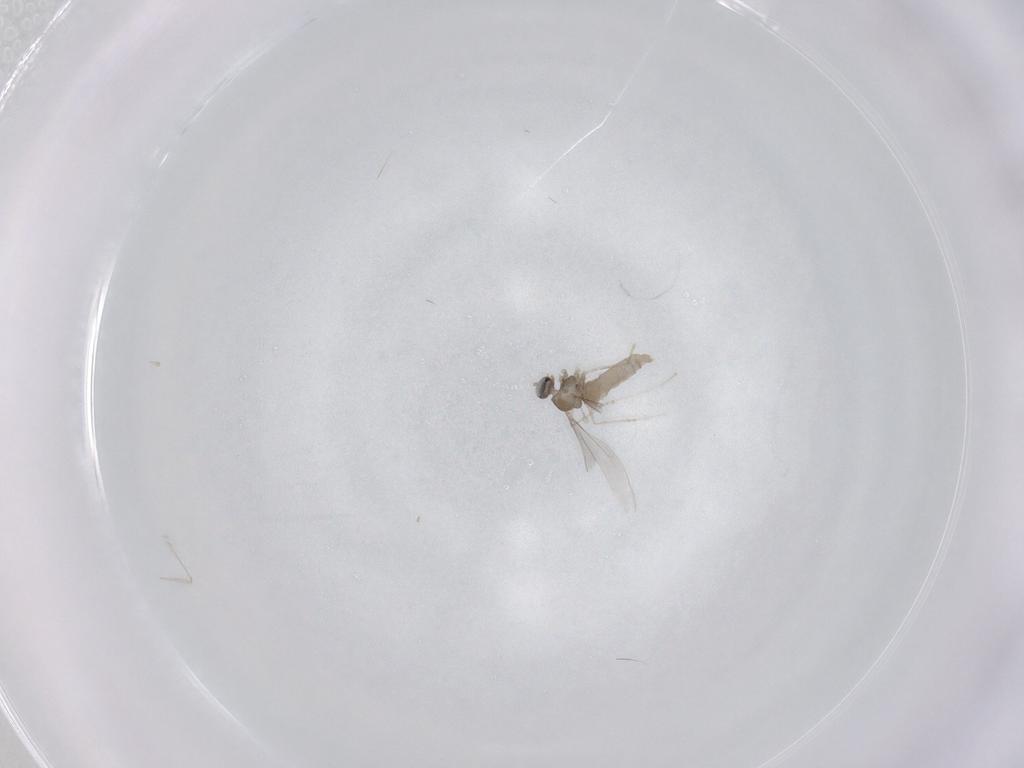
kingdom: Animalia
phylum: Arthropoda
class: Insecta
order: Diptera
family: Cecidomyiidae
